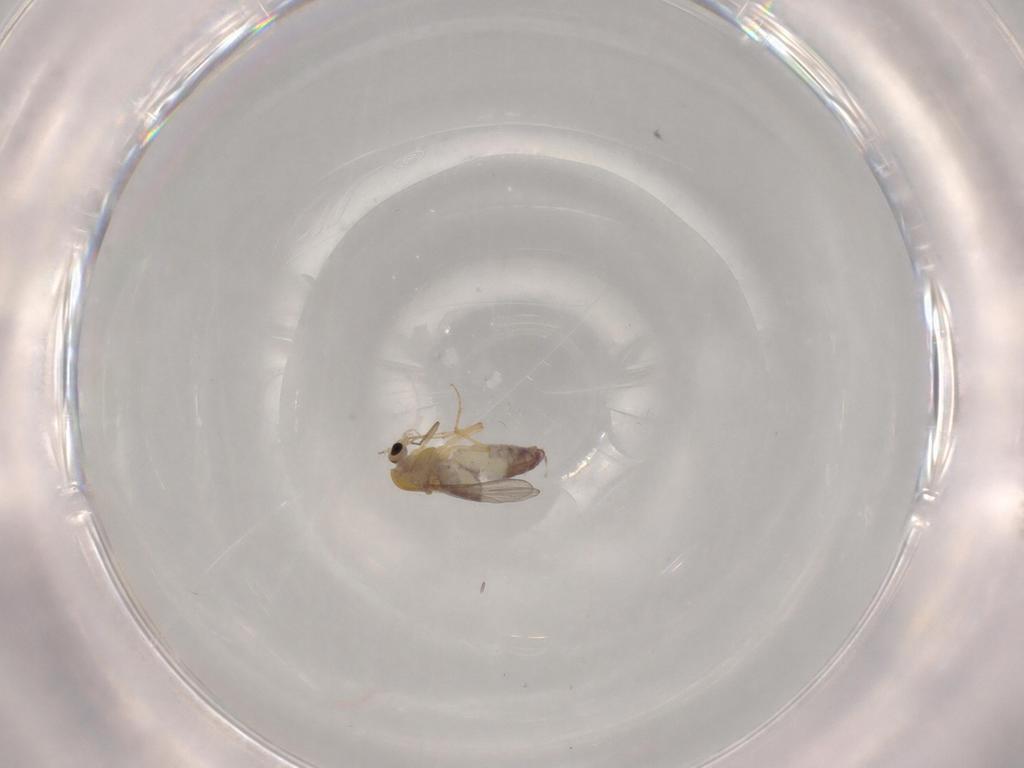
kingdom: Animalia
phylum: Arthropoda
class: Insecta
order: Diptera
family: Chironomidae
